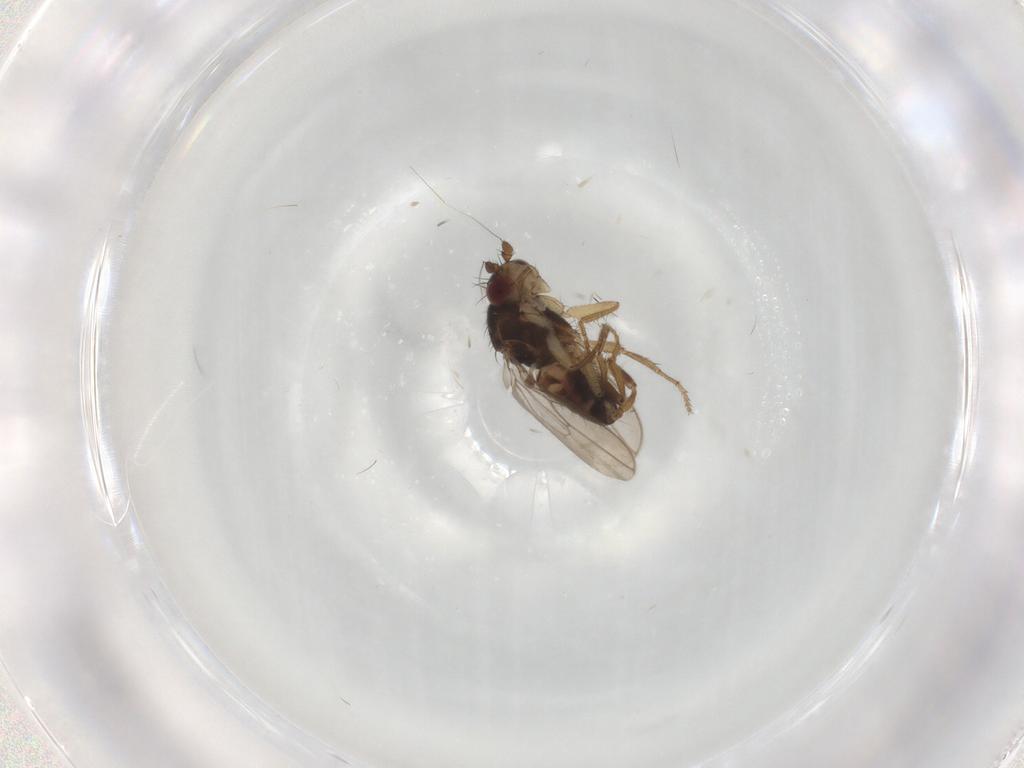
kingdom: Animalia
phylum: Arthropoda
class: Insecta
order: Diptera
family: Sphaeroceridae
